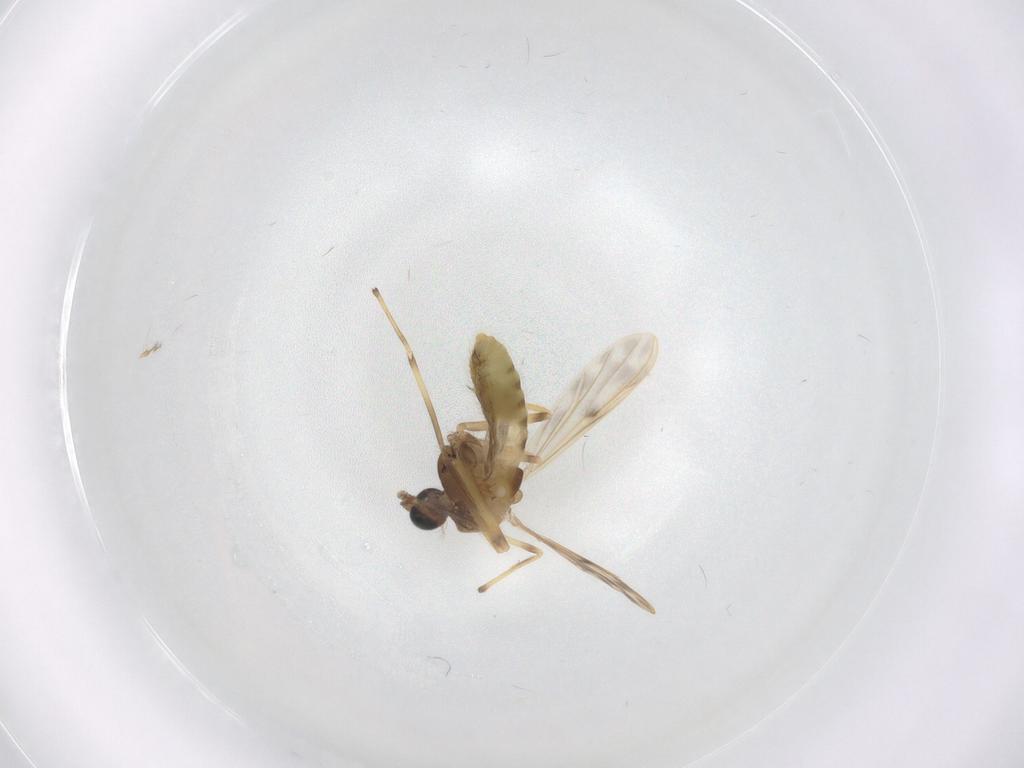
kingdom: Animalia
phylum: Arthropoda
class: Insecta
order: Diptera
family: Chironomidae
